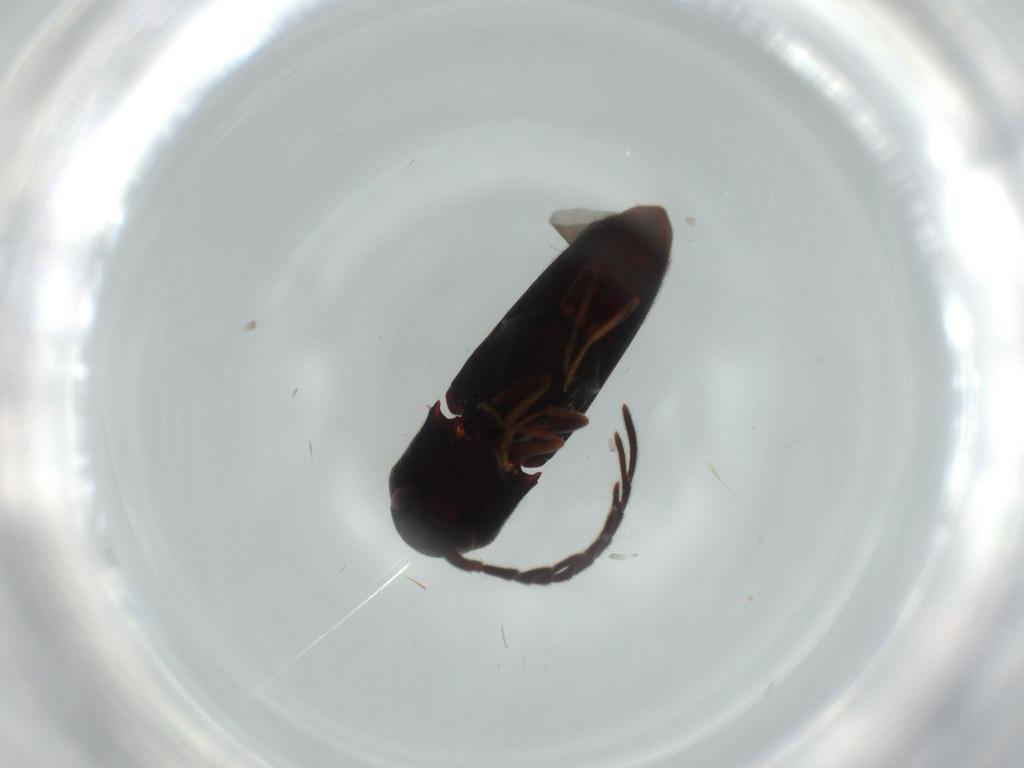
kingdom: Animalia
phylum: Arthropoda
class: Insecta
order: Coleoptera
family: Eucnemidae
